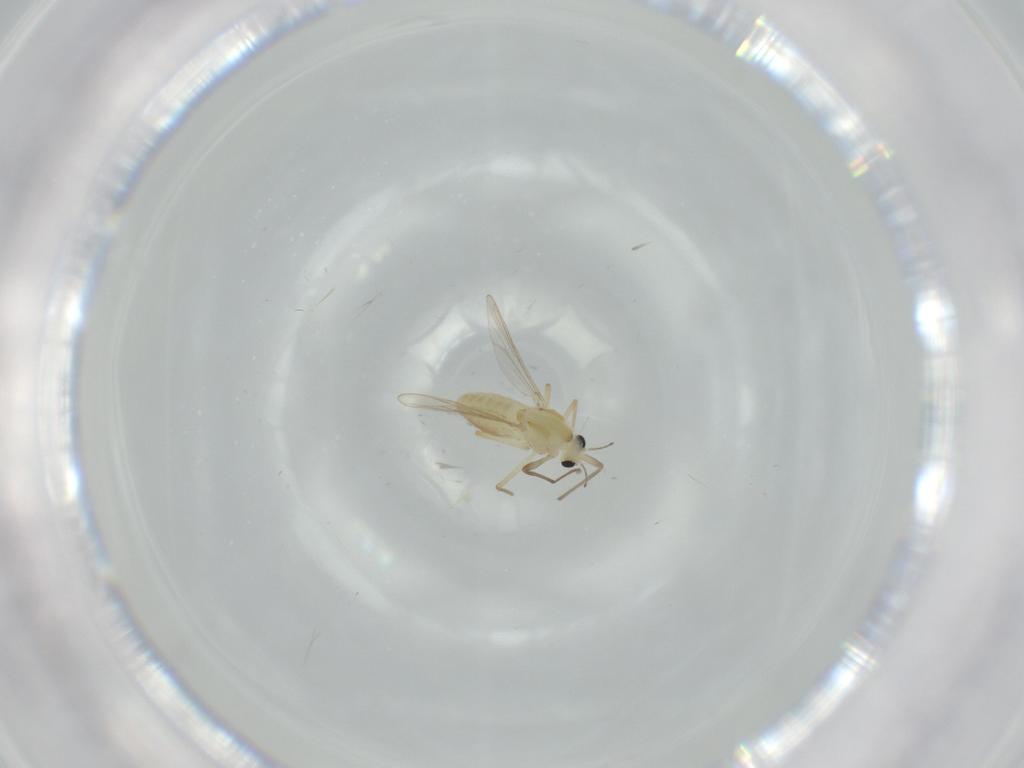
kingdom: Animalia
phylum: Arthropoda
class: Insecta
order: Diptera
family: Chironomidae
